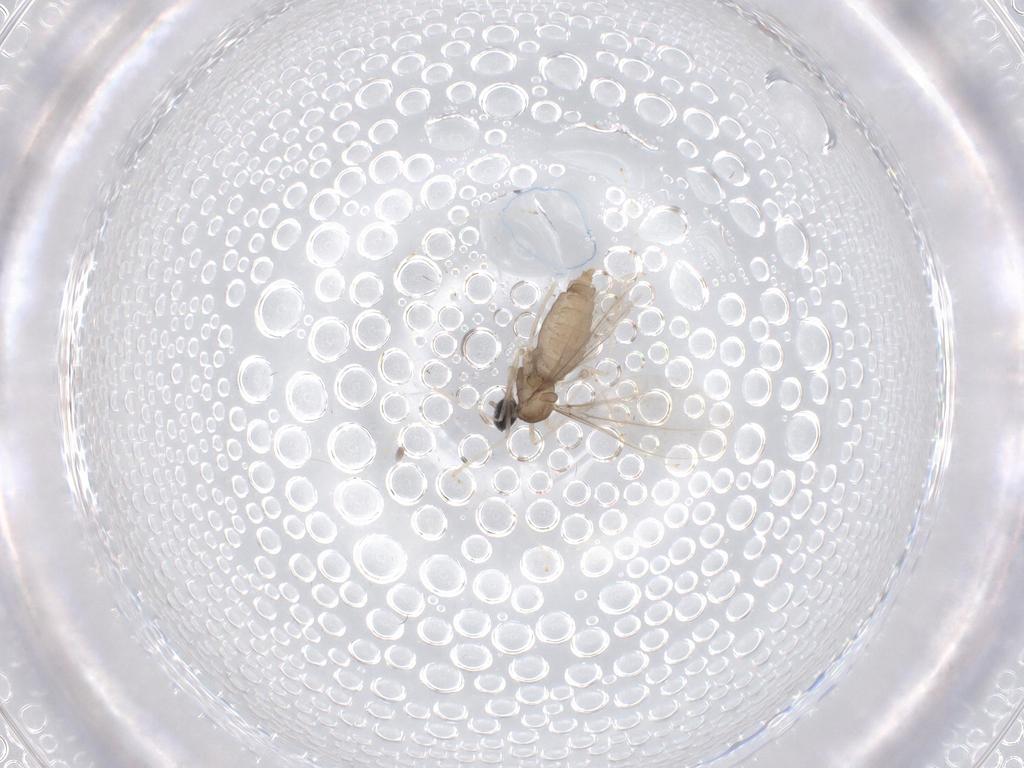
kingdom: Animalia
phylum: Arthropoda
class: Insecta
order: Diptera
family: Cecidomyiidae
